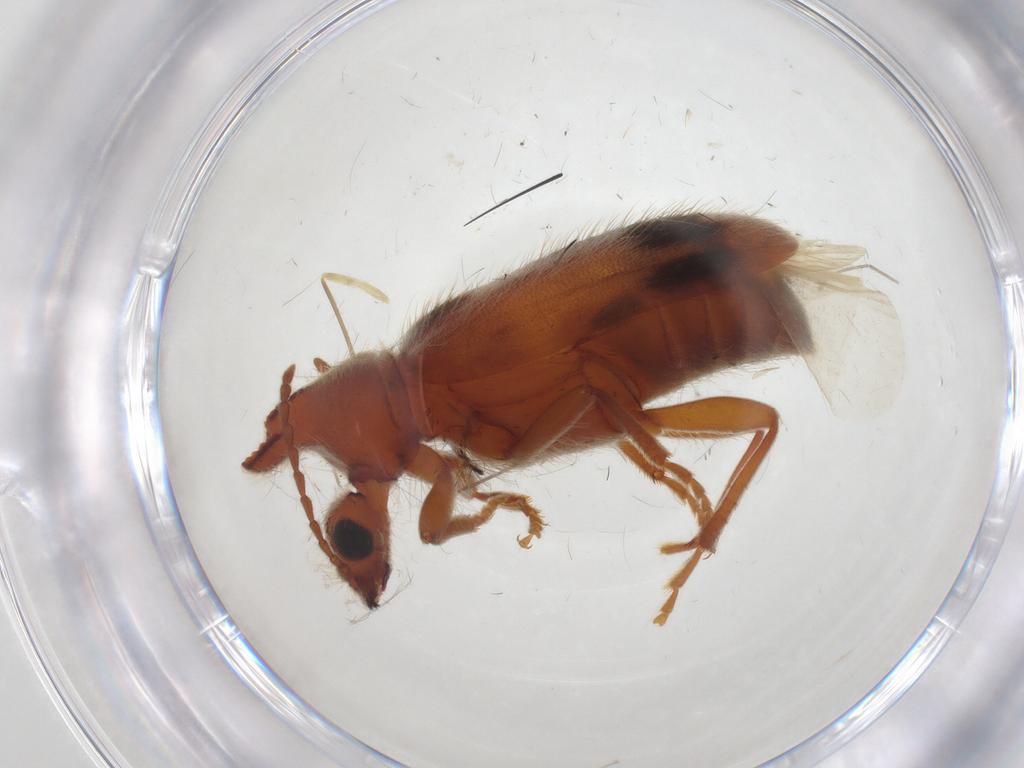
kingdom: Animalia
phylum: Arthropoda
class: Insecta
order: Coleoptera
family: Anthicidae
